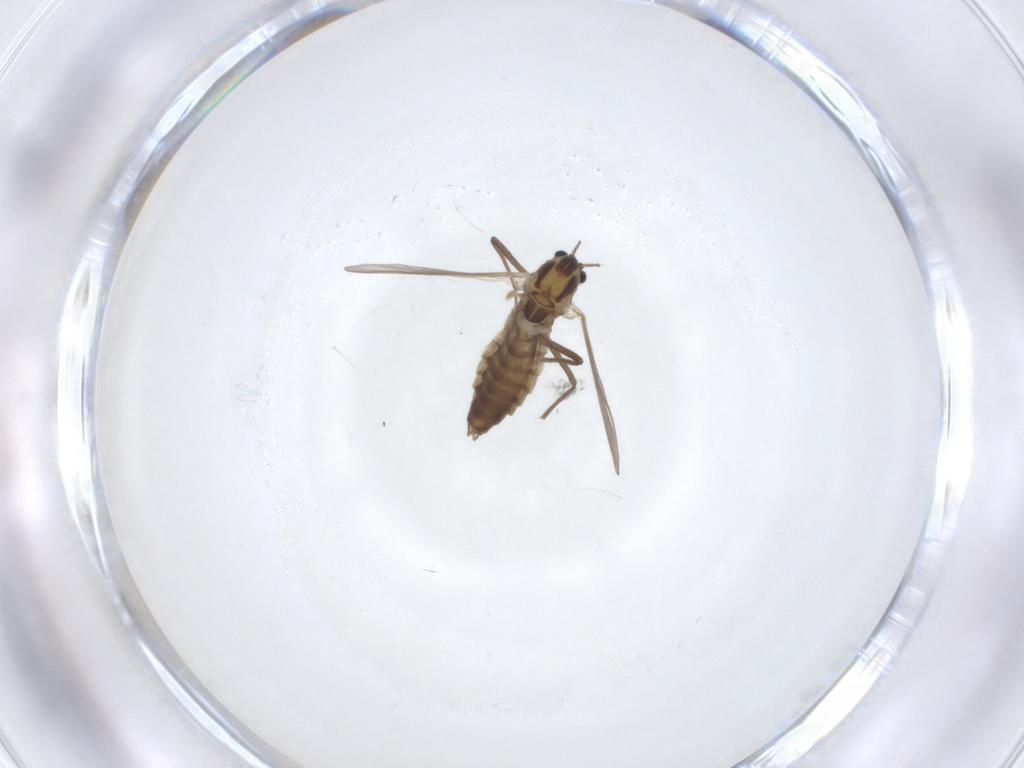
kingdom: Animalia
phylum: Arthropoda
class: Insecta
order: Diptera
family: Chironomidae
